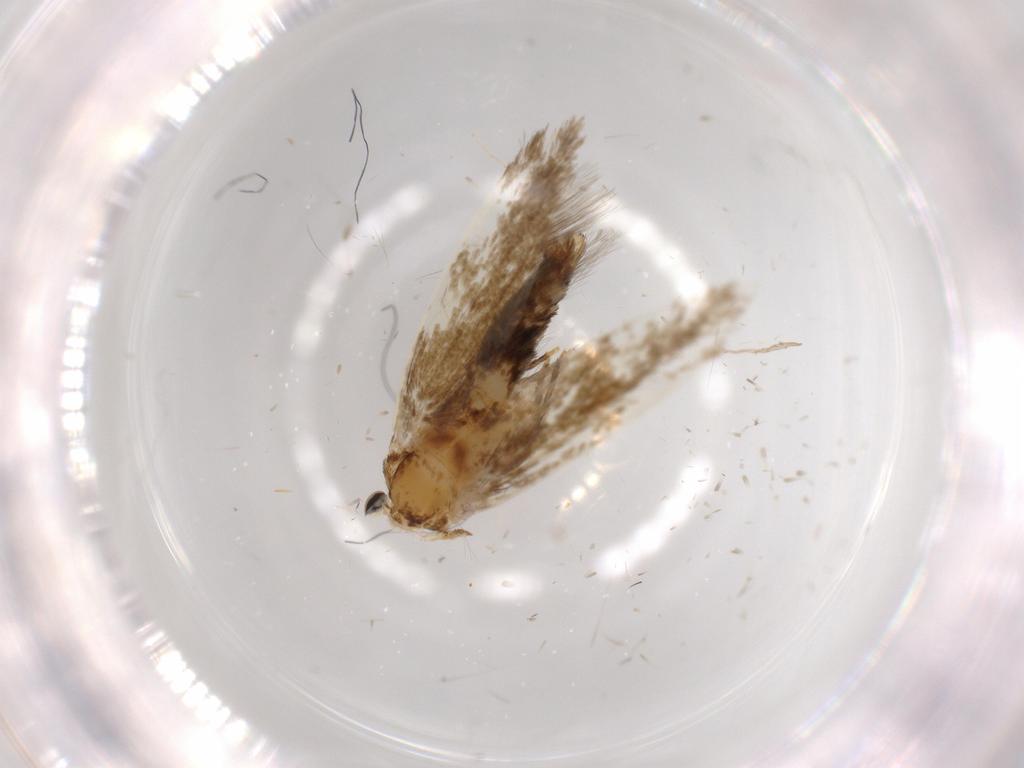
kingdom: Animalia
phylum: Arthropoda
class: Insecta
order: Lepidoptera
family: Tineidae
